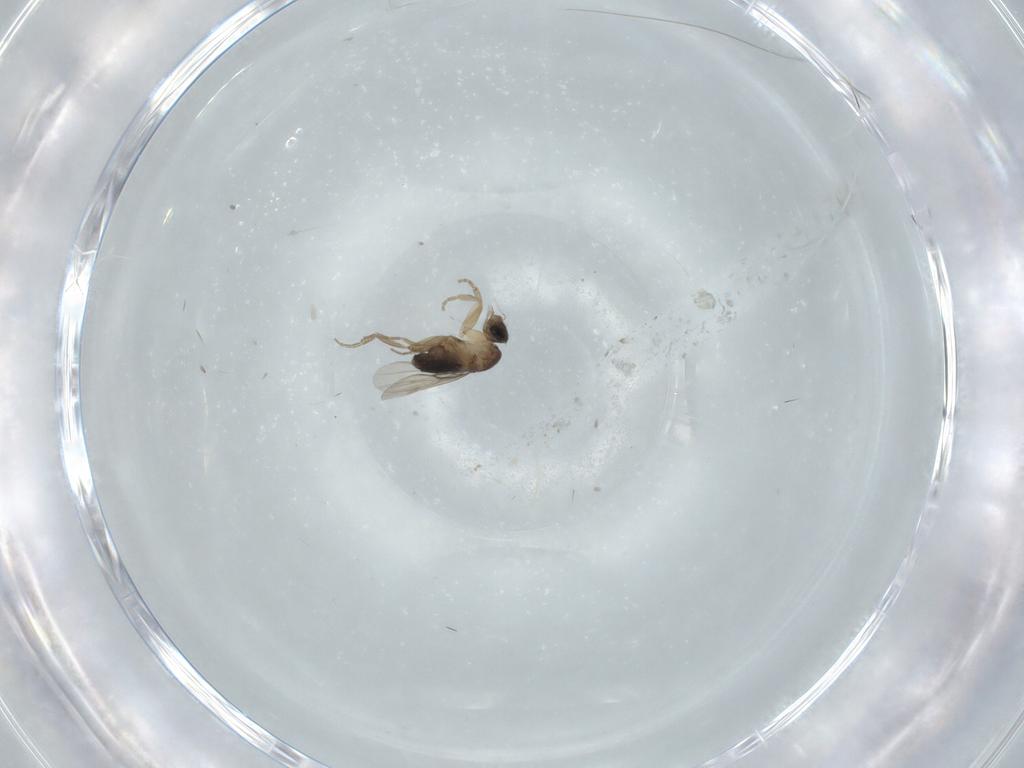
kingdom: Animalia
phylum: Arthropoda
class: Insecta
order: Diptera
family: Phoridae
